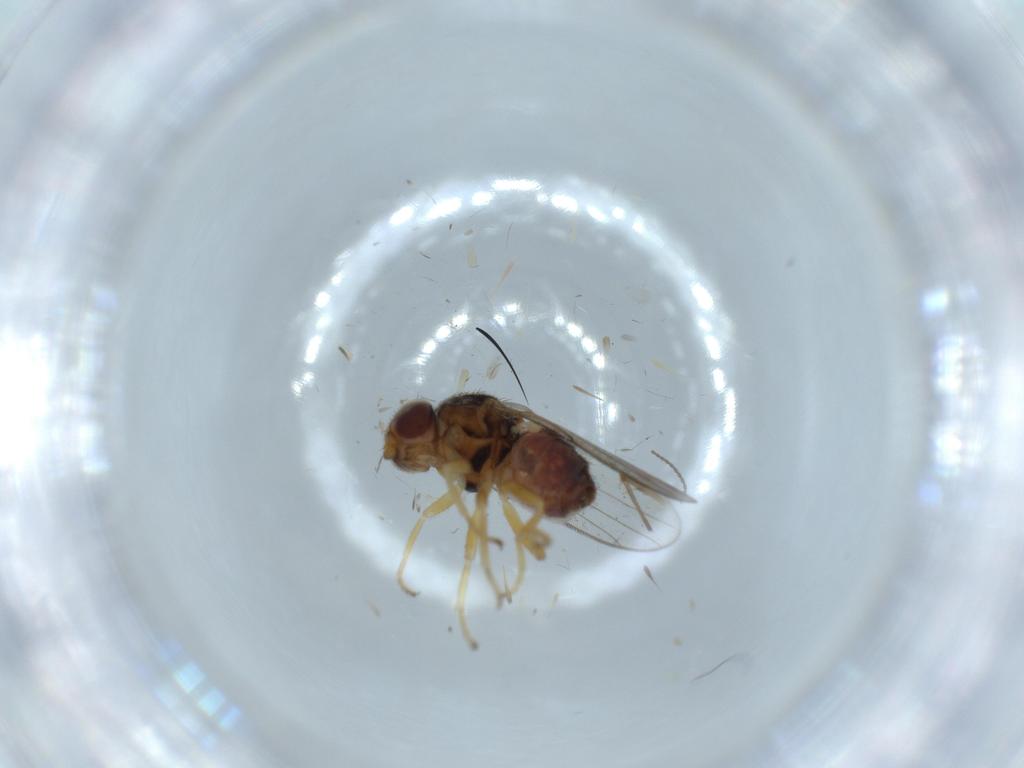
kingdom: Animalia
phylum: Arthropoda
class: Insecta
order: Diptera
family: Chloropidae
